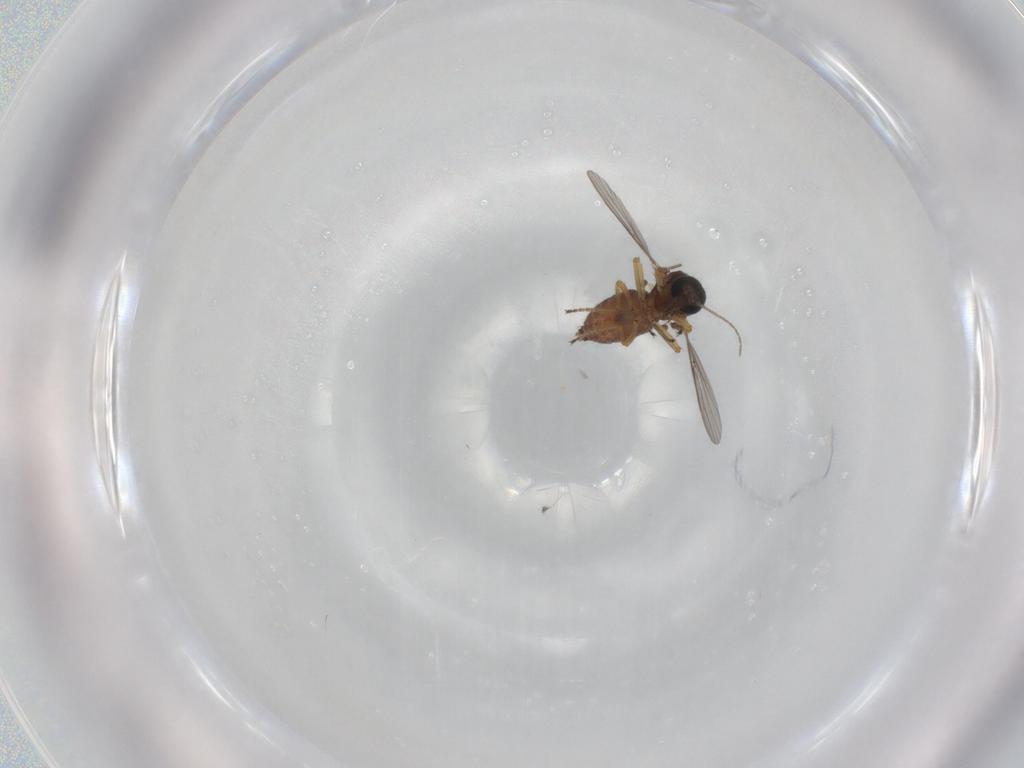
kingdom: Animalia
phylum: Arthropoda
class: Insecta
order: Diptera
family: Ceratopogonidae
